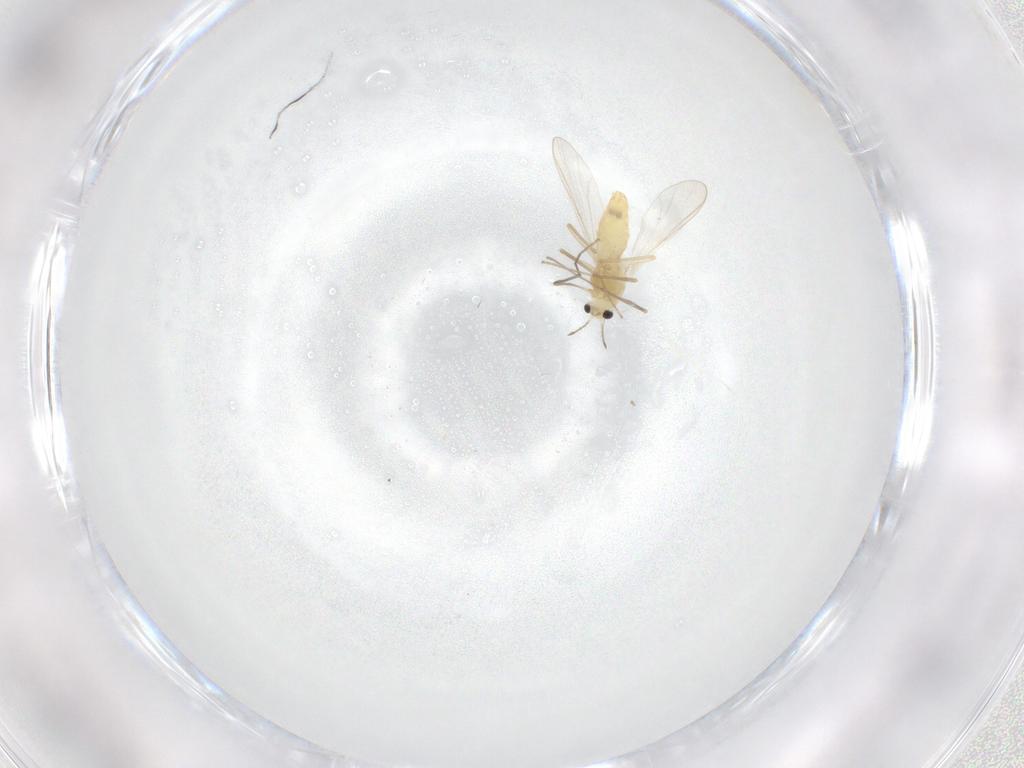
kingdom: Animalia
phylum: Arthropoda
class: Insecta
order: Diptera
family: Chironomidae
